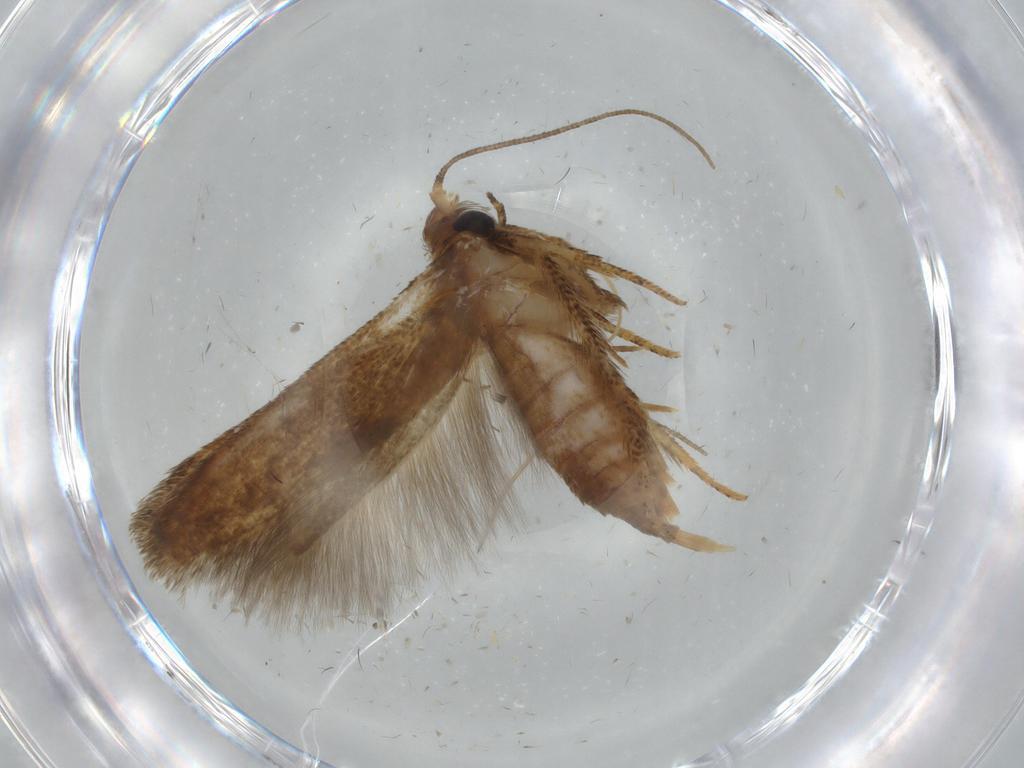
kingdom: Animalia
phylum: Arthropoda
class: Insecta
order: Lepidoptera
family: Blastobasidae
